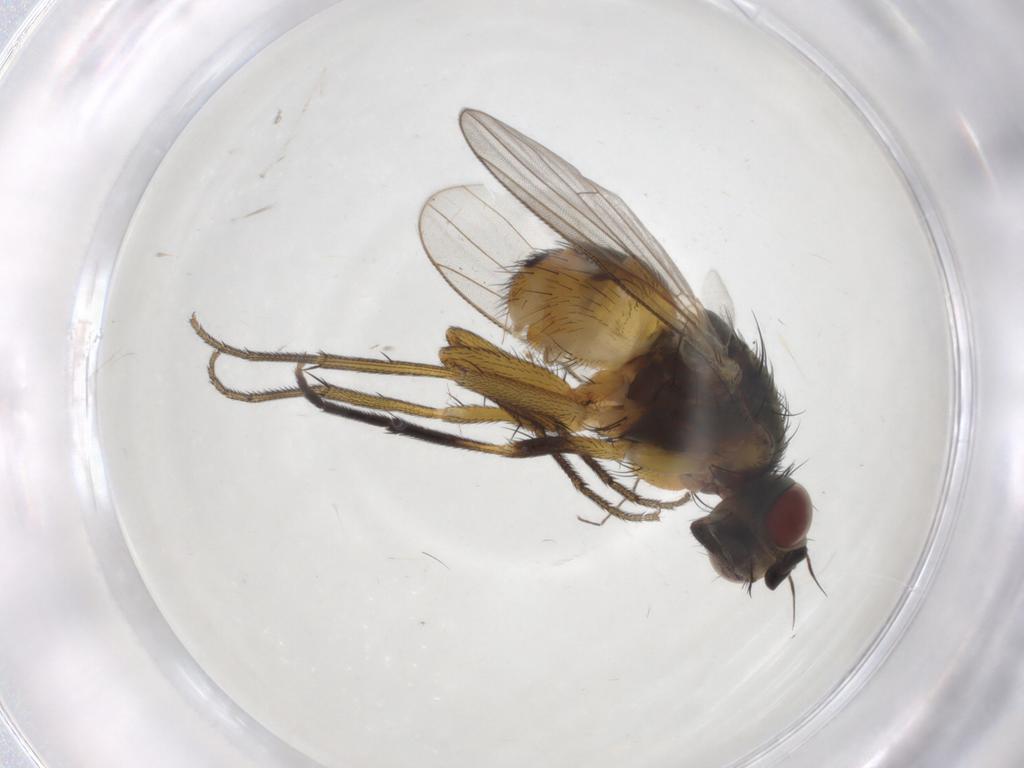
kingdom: Animalia
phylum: Arthropoda
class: Insecta
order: Diptera
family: Muscidae
